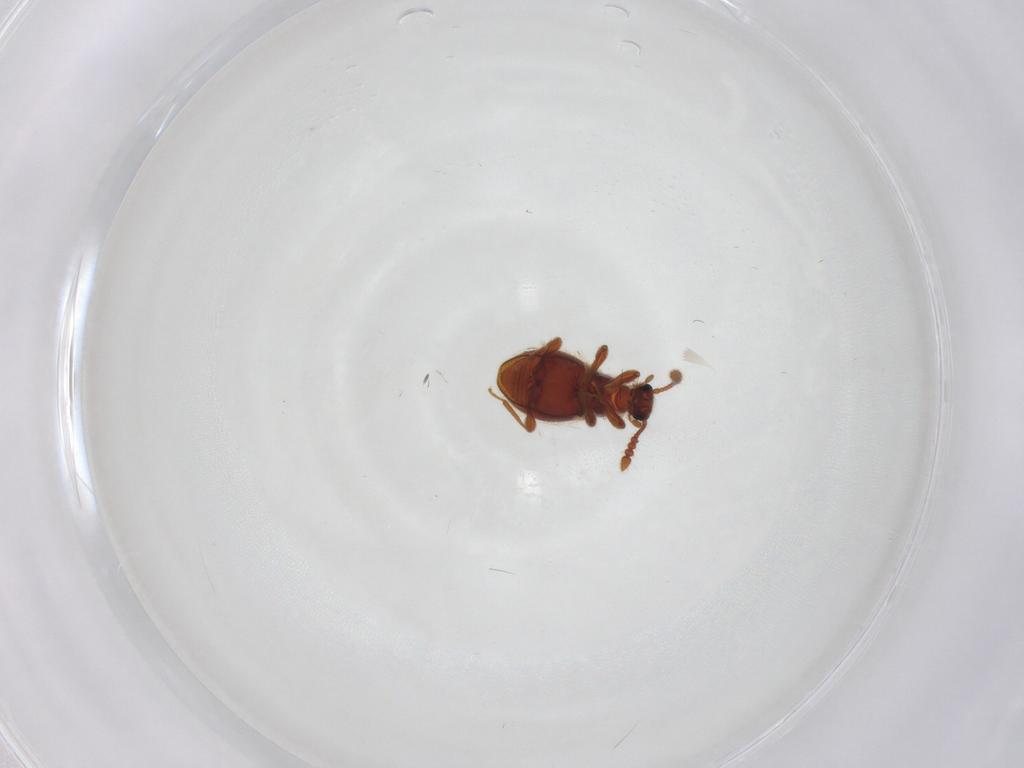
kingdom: Animalia
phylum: Arthropoda
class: Insecta
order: Coleoptera
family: Staphylinidae
